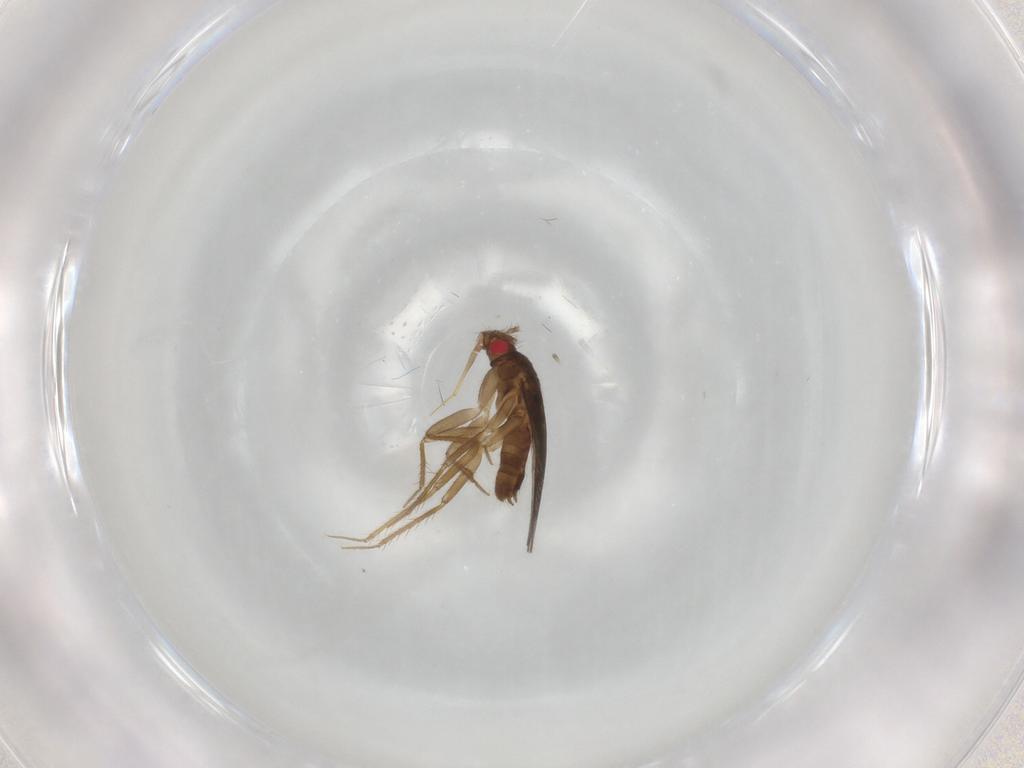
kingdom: Animalia
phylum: Arthropoda
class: Insecta
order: Hemiptera
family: Ceratocombidae
